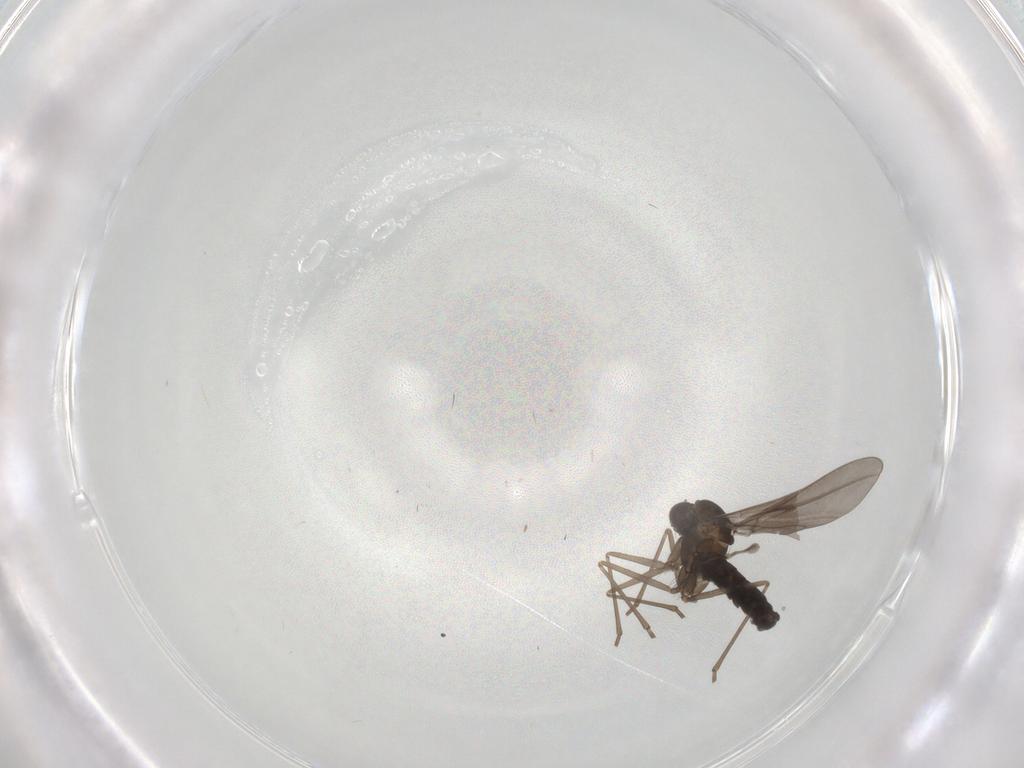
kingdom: Animalia
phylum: Arthropoda
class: Insecta
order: Diptera
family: Cecidomyiidae
